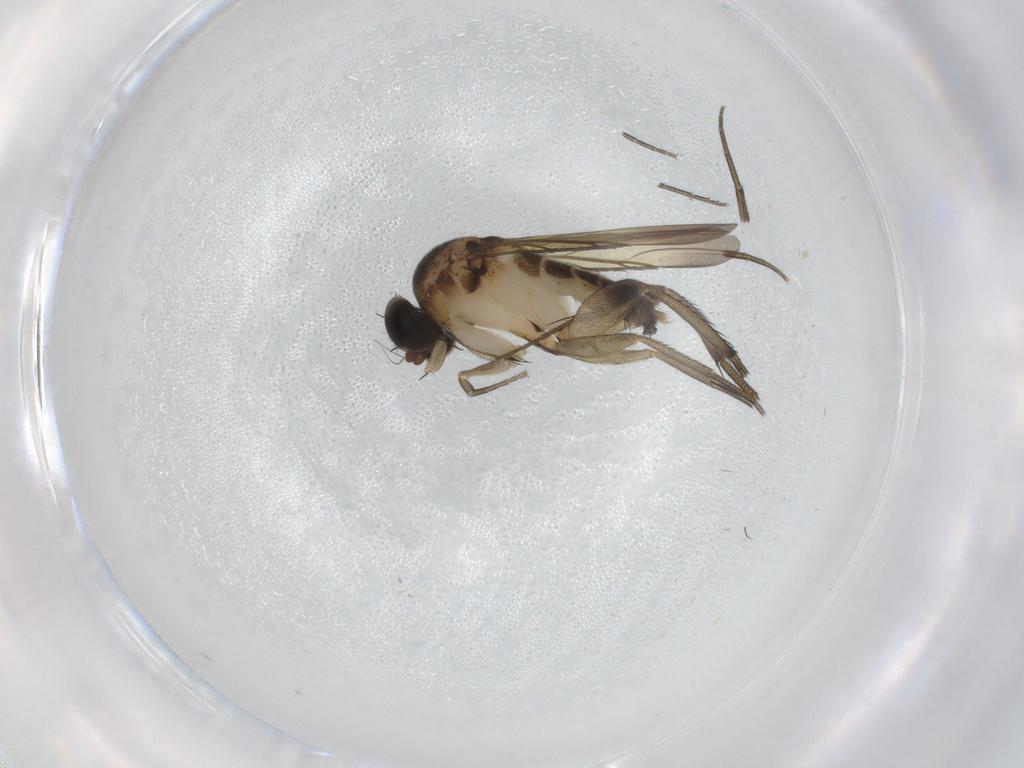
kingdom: Animalia
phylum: Arthropoda
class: Insecta
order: Diptera
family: Phoridae
